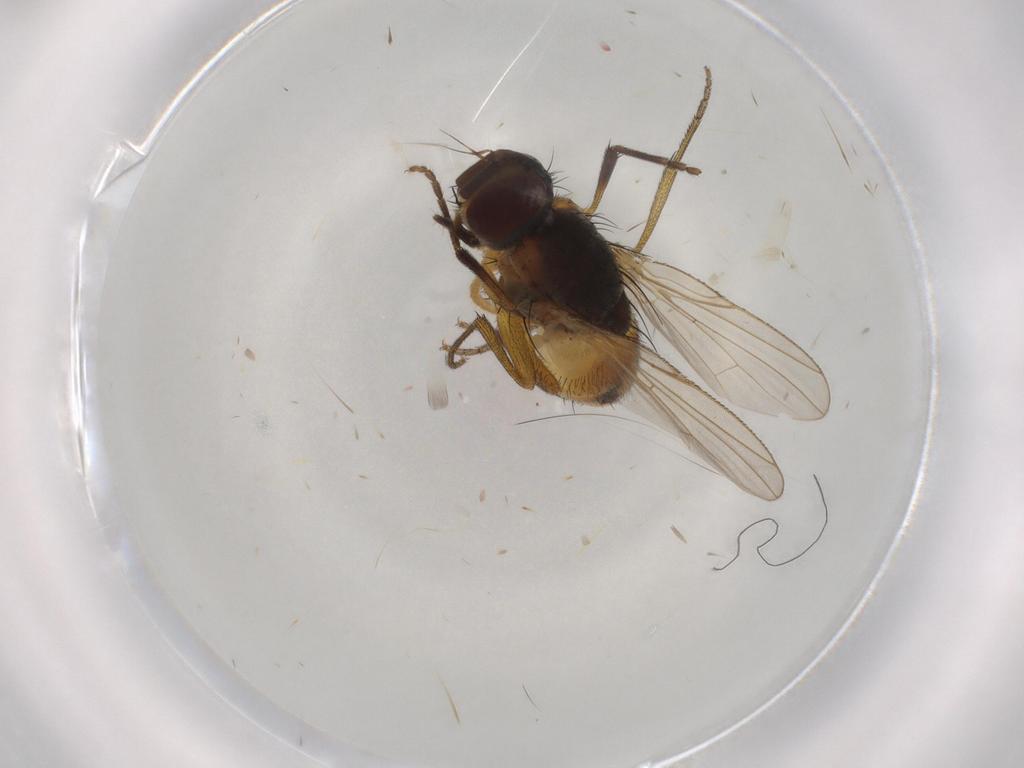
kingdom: Animalia
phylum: Arthropoda
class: Insecta
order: Diptera
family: Muscidae
